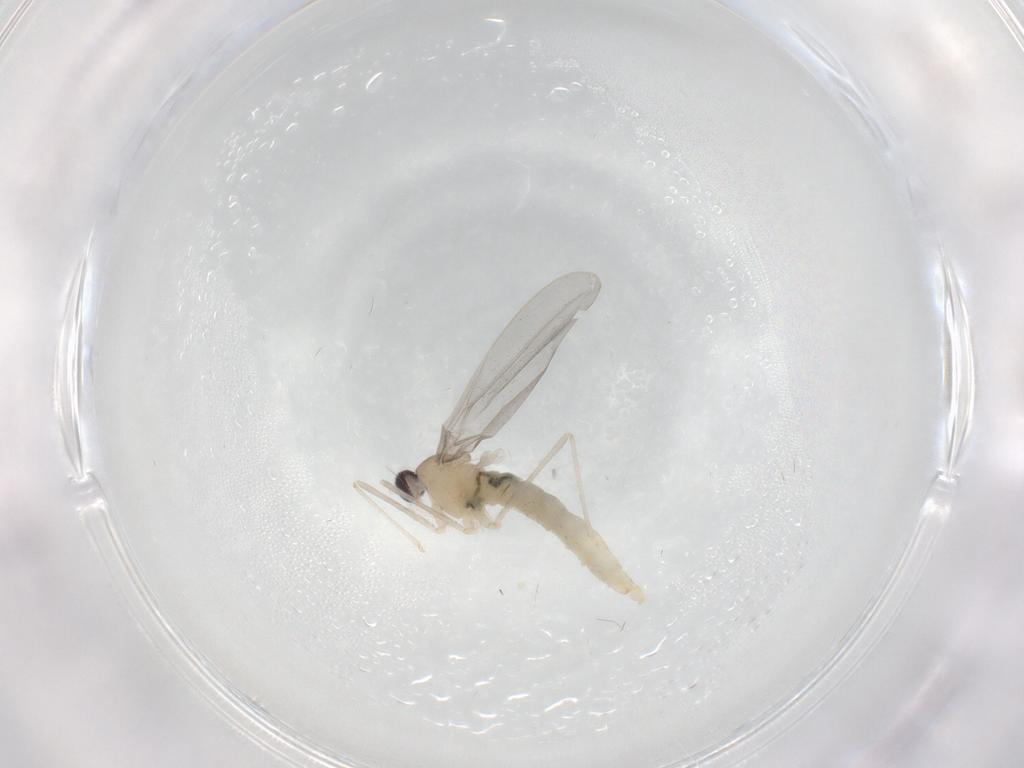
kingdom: Animalia
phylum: Arthropoda
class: Insecta
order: Diptera
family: Cecidomyiidae
